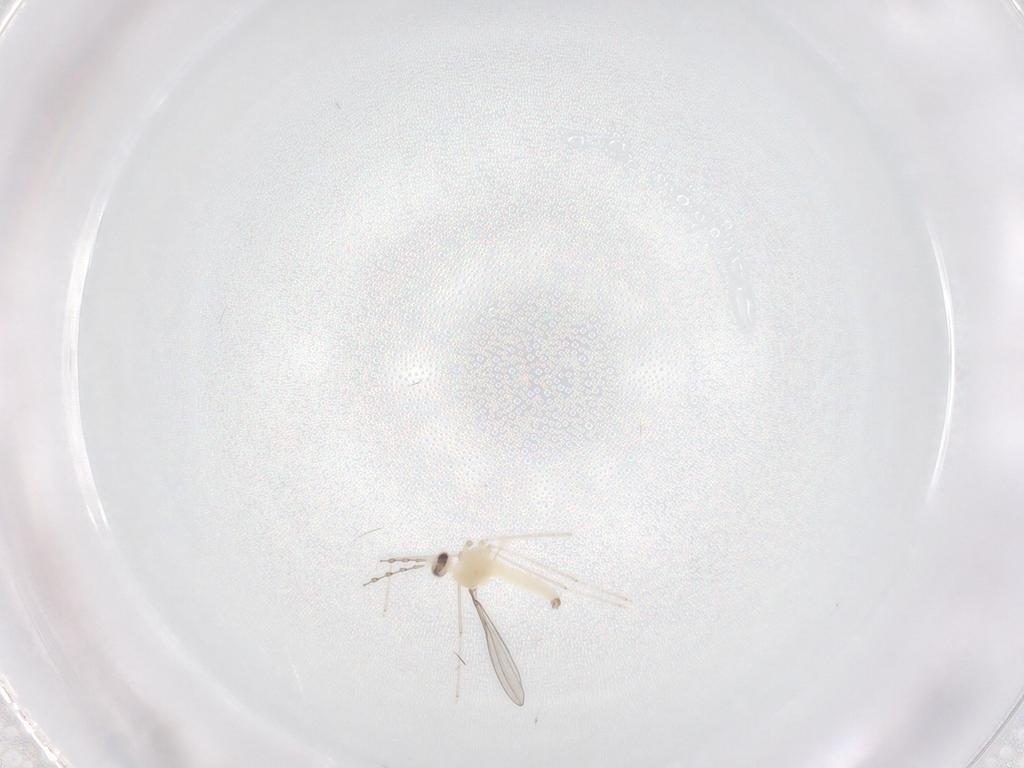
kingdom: Animalia
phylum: Arthropoda
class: Insecta
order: Diptera
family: Cecidomyiidae
